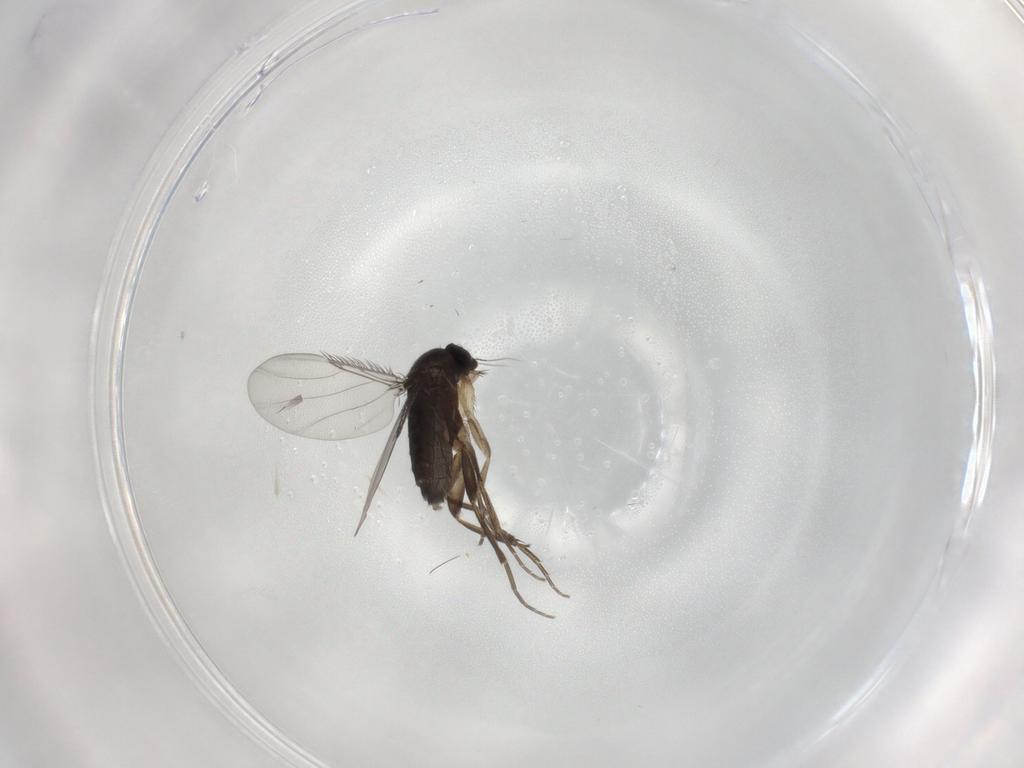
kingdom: Animalia
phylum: Arthropoda
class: Insecta
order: Diptera
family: Phoridae
